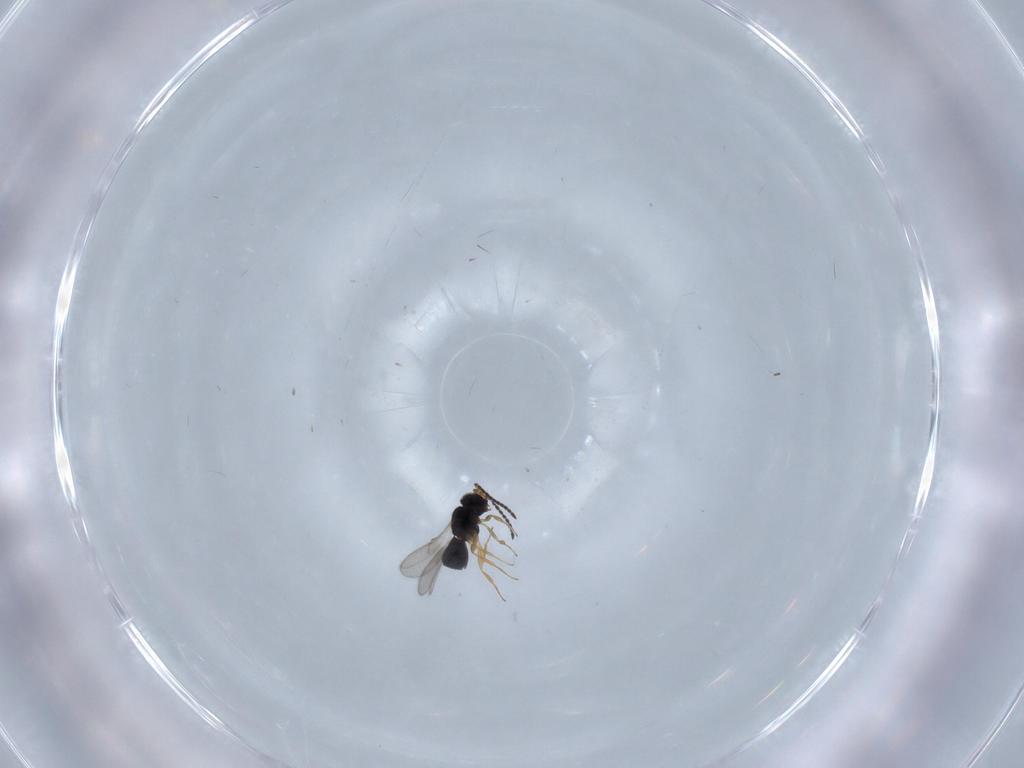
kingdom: Animalia
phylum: Arthropoda
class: Insecta
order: Hymenoptera
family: Scelionidae
